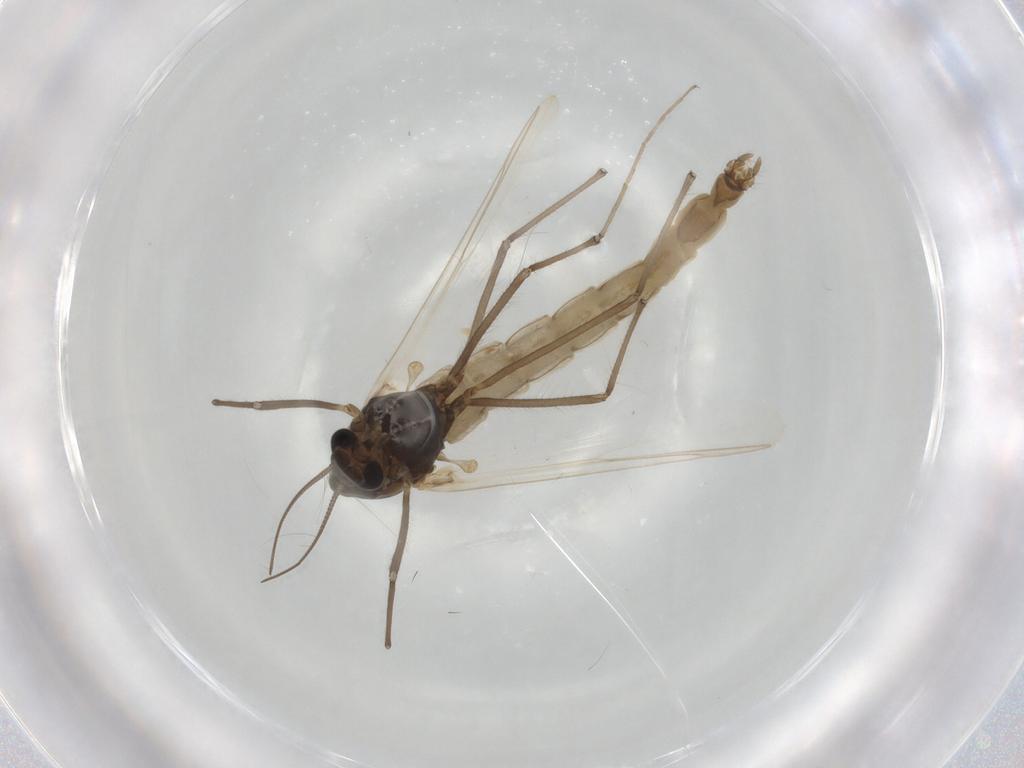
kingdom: Animalia
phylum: Arthropoda
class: Insecta
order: Diptera
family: Chironomidae
